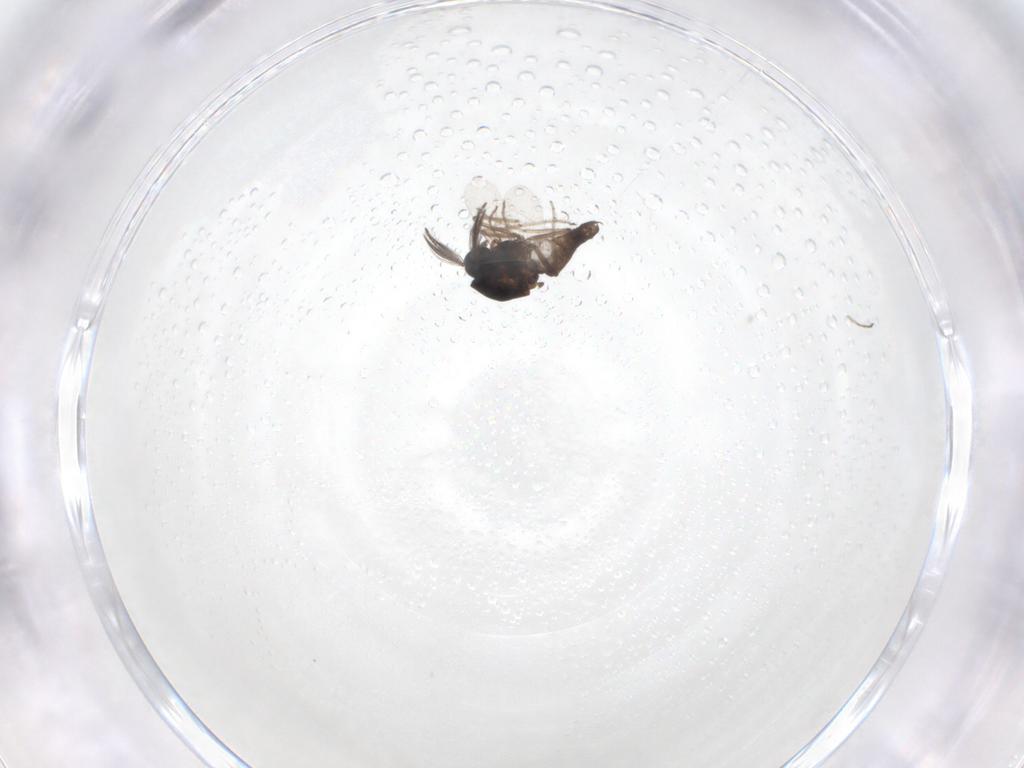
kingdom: Animalia
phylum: Arthropoda
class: Insecta
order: Diptera
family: Ceratopogonidae
